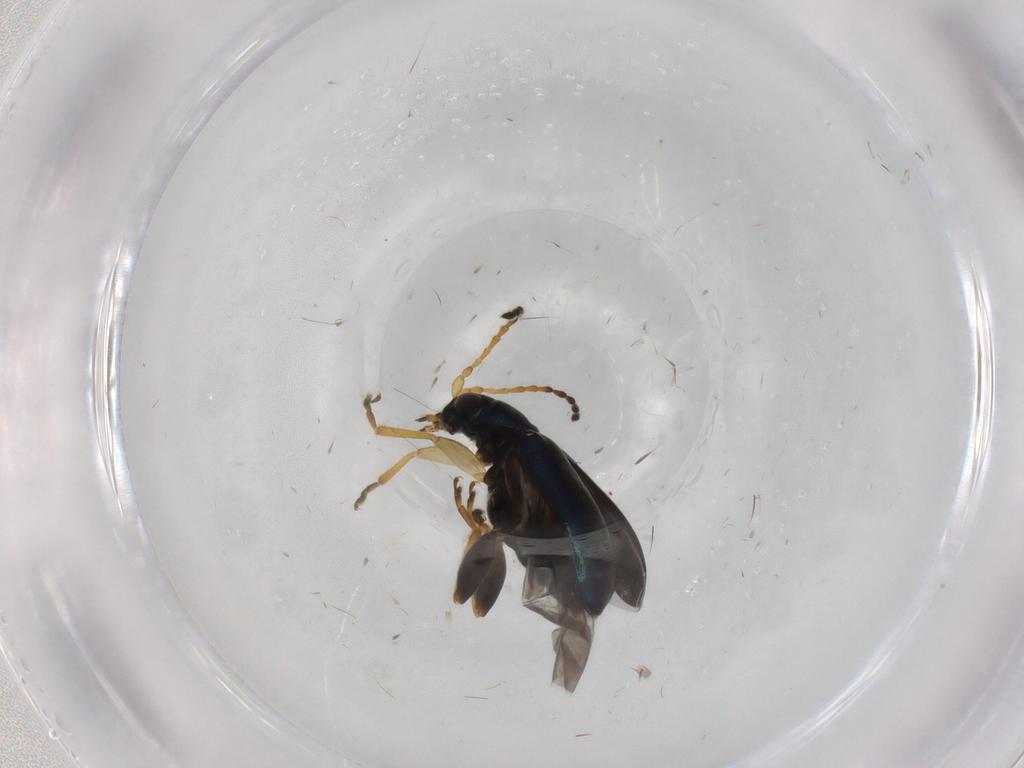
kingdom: Animalia
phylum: Arthropoda
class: Insecta
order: Coleoptera
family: Chrysomelidae
